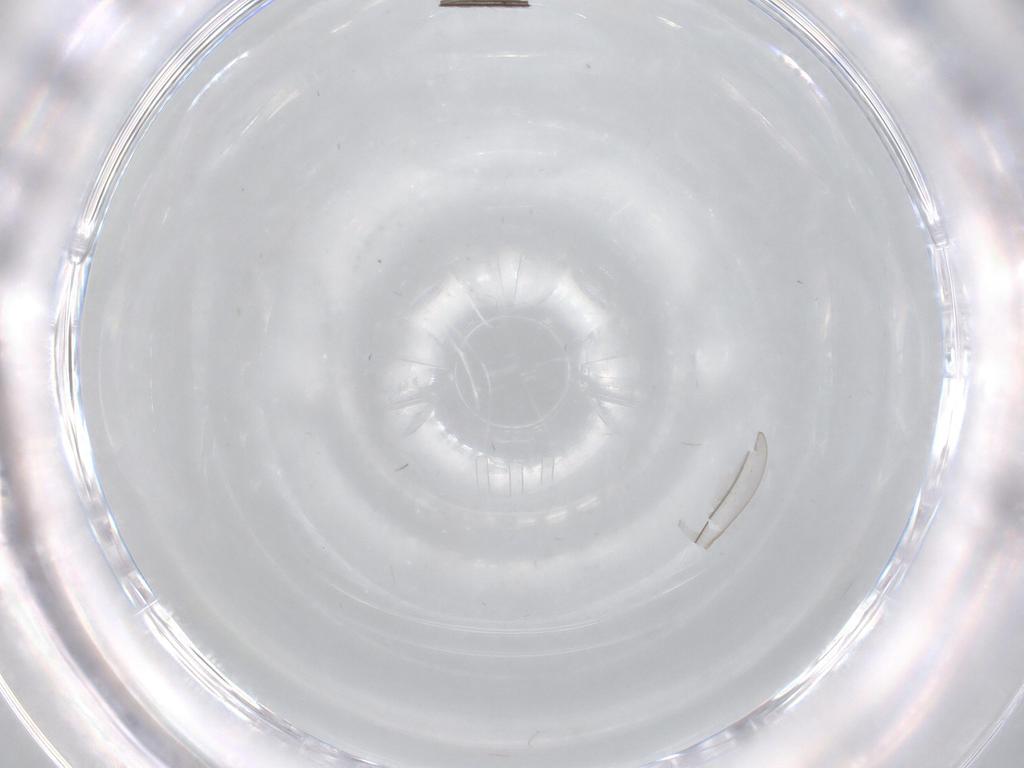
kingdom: Animalia
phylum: Arthropoda
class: Insecta
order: Diptera
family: Sciaridae
